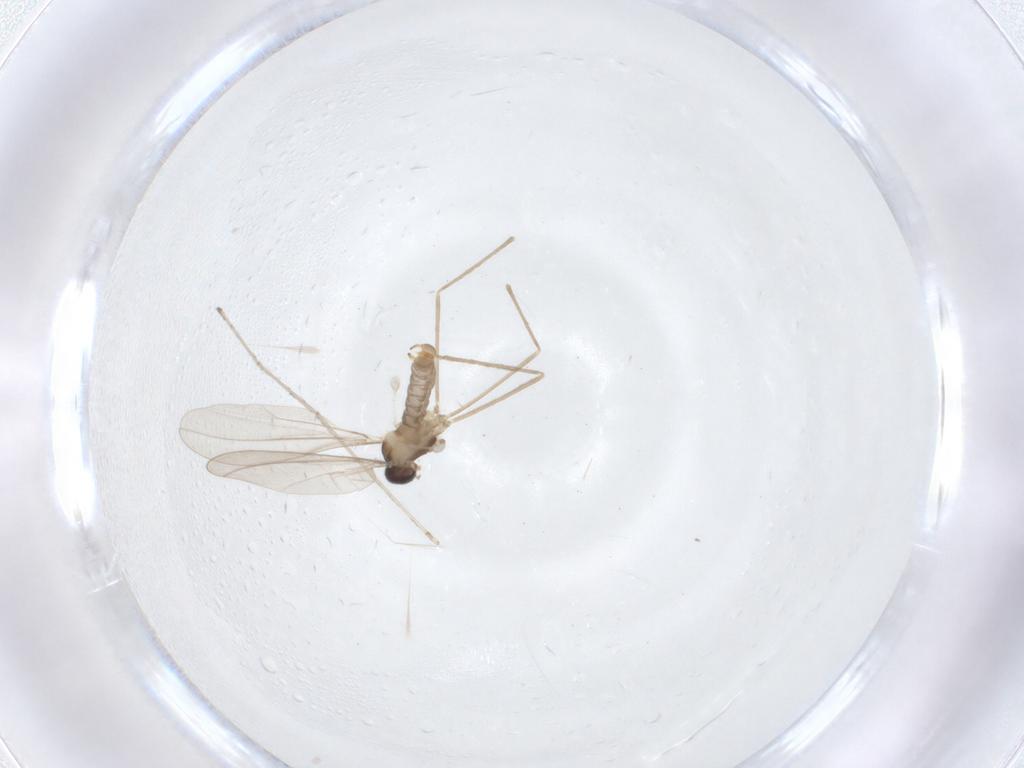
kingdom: Animalia
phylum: Arthropoda
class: Insecta
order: Diptera
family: Cecidomyiidae
